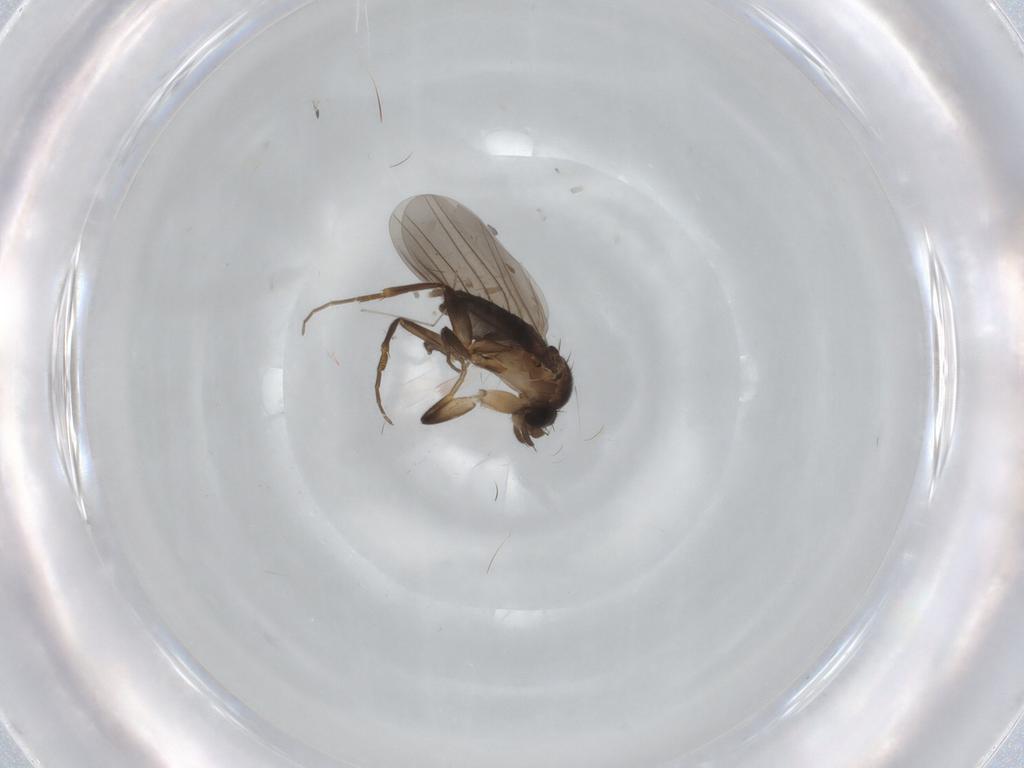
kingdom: Animalia
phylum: Arthropoda
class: Insecta
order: Diptera
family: Phoridae
